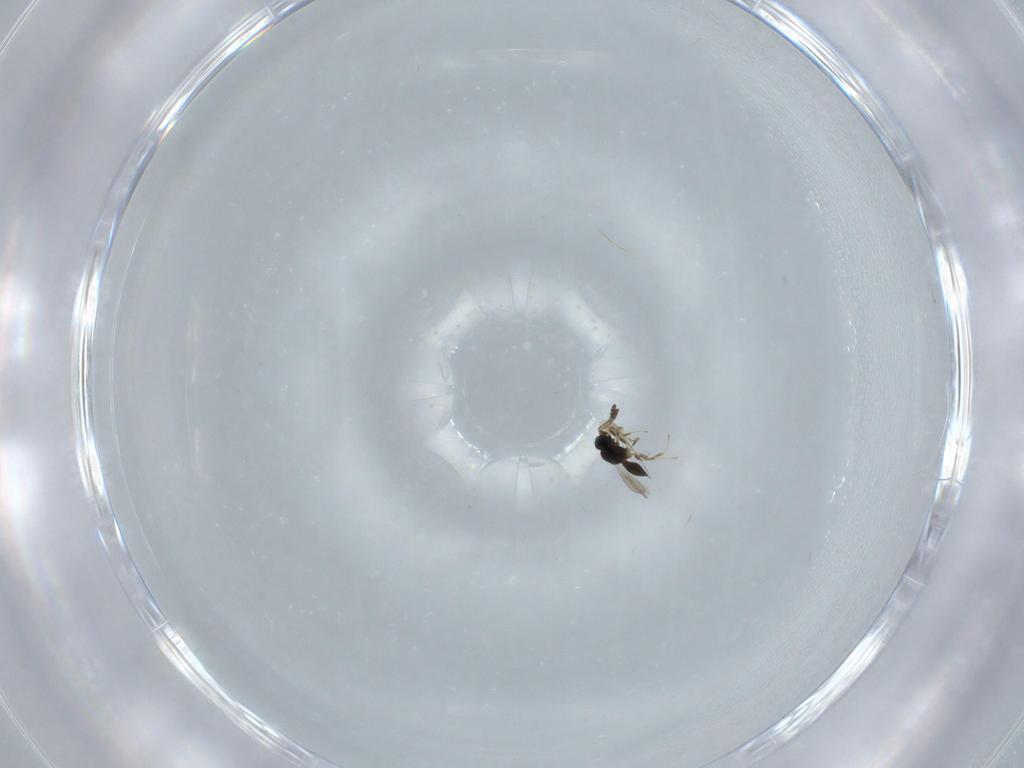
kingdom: Animalia
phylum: Arthropoda
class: Insecta
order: Hymenoptera
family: Scelionidae
